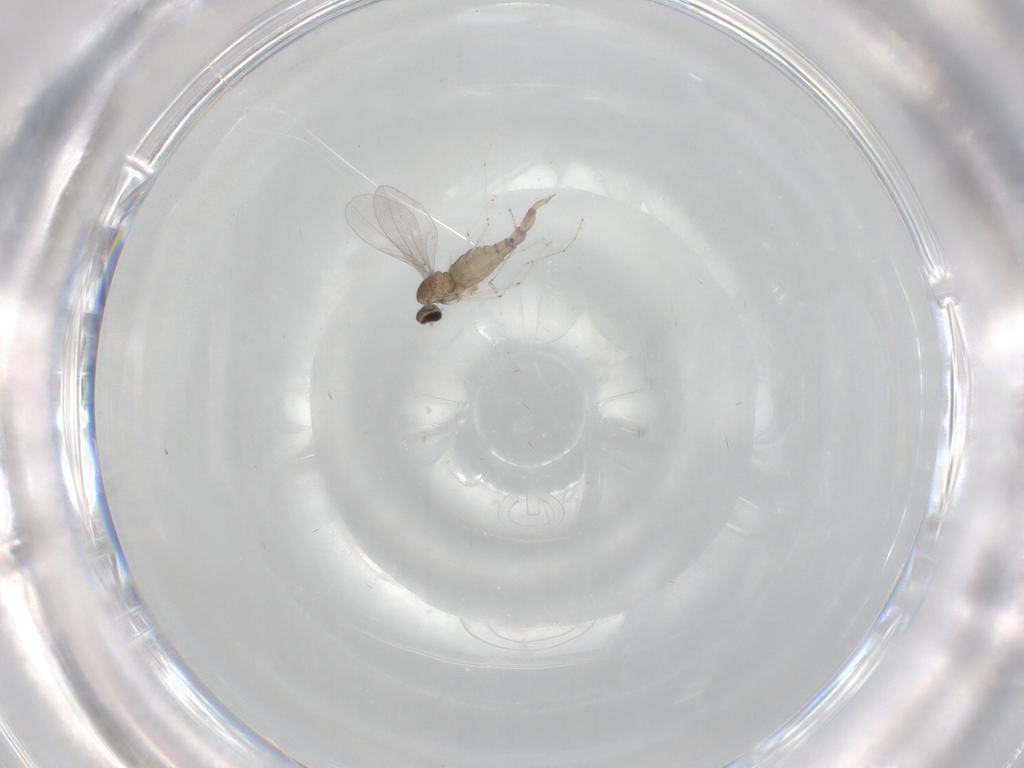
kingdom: Animalia
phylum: Arthropoda
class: Insecta
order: Diptera
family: Cecidomyiidae
